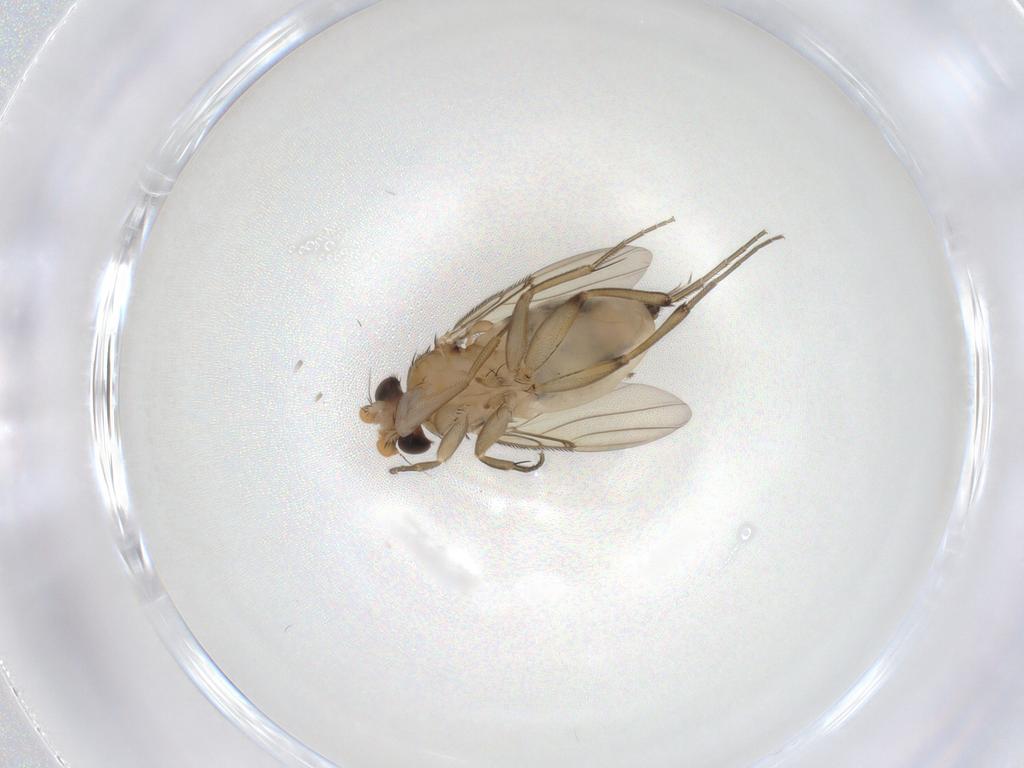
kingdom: Animalia
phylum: Arthropoda
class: Insecta
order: Diptera
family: Phoridae
